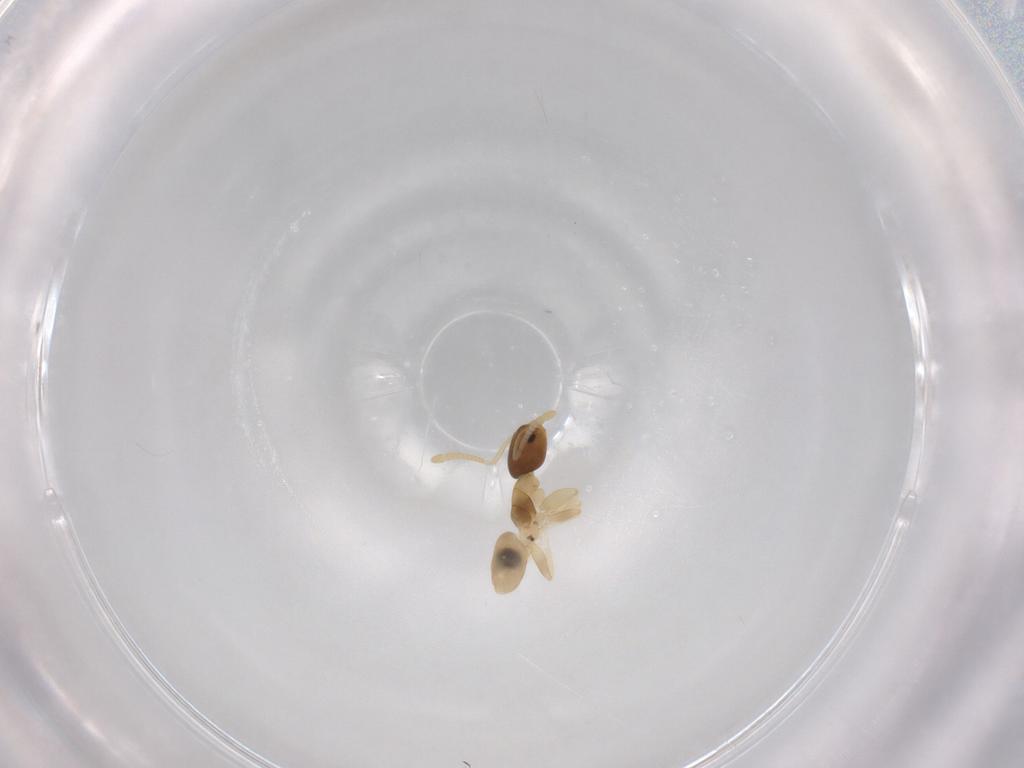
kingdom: Animalia
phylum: Arthropoda
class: Insecta
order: Hymenoptera
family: Formicidae
